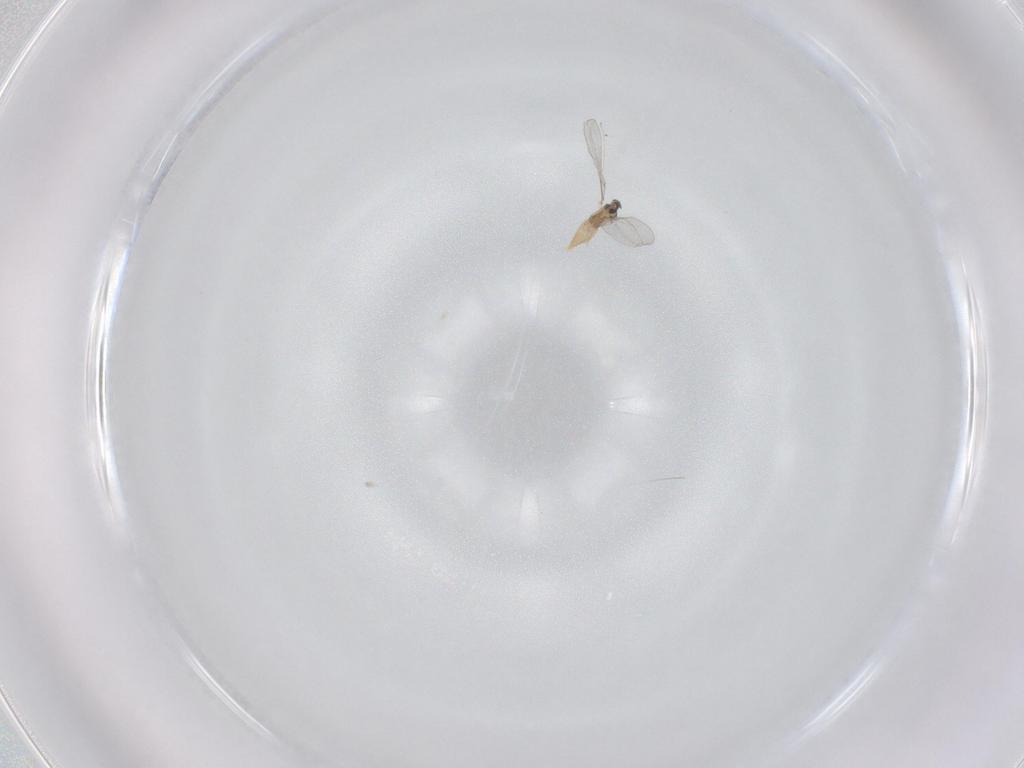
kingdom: Animalia
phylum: Arthropoda
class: Insecta
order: Diptera
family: Cecidomyiidae
